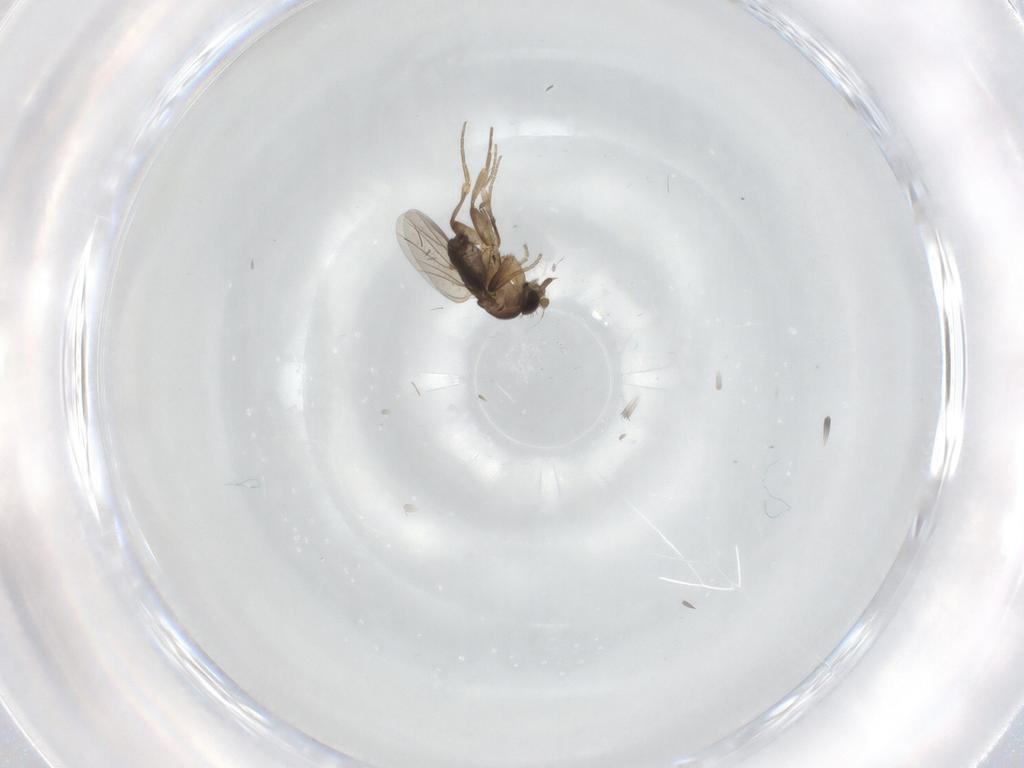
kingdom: Animalia
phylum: Arthropoda
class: Insecta
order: Diptera
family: Phoridae
